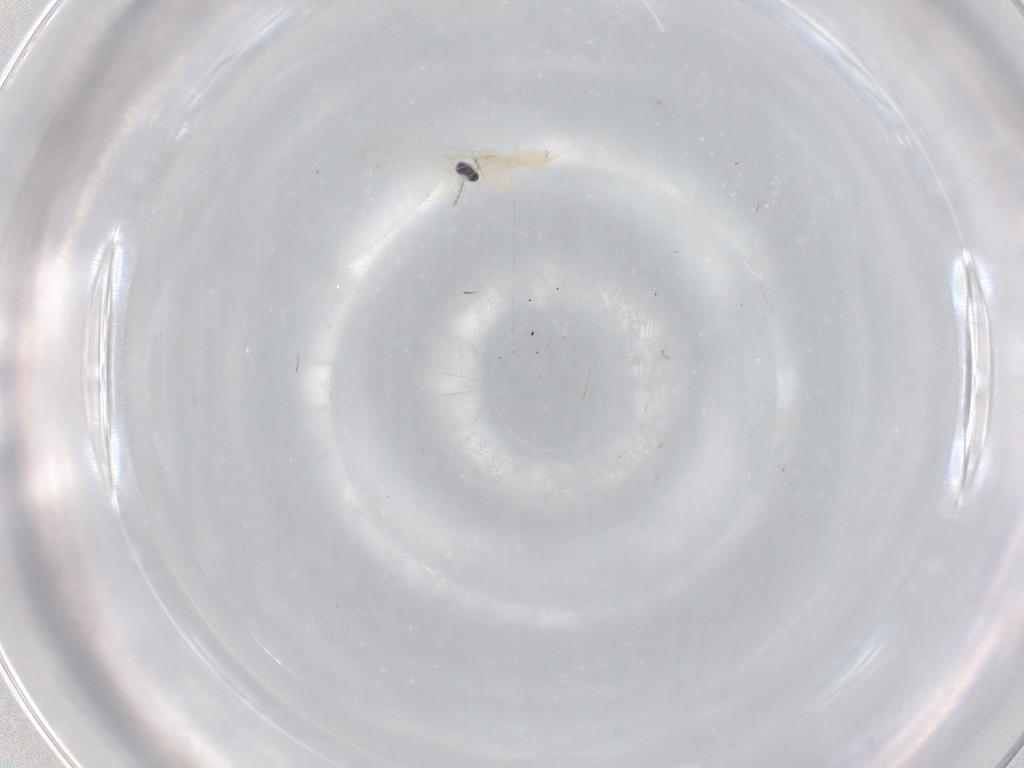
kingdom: Animalia
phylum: Arthropoda
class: Insecta
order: Diptera
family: Cecidomyiidae
